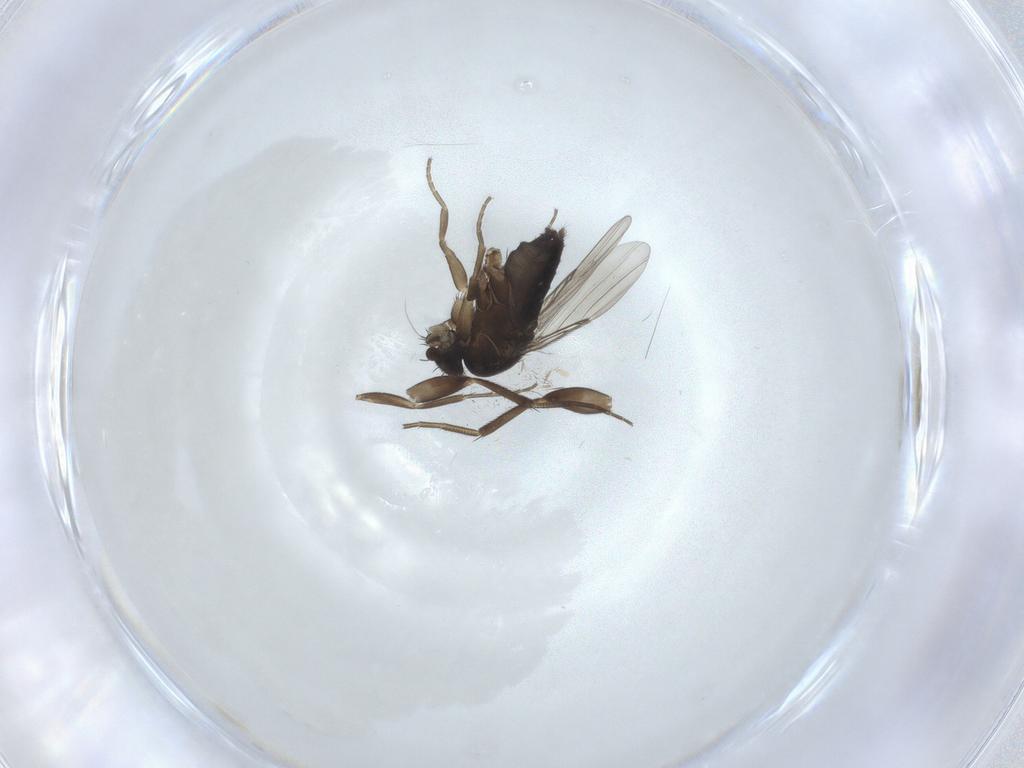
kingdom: Animalia
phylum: Arthropoda
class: Insecta
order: Diptera
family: Phoridae
